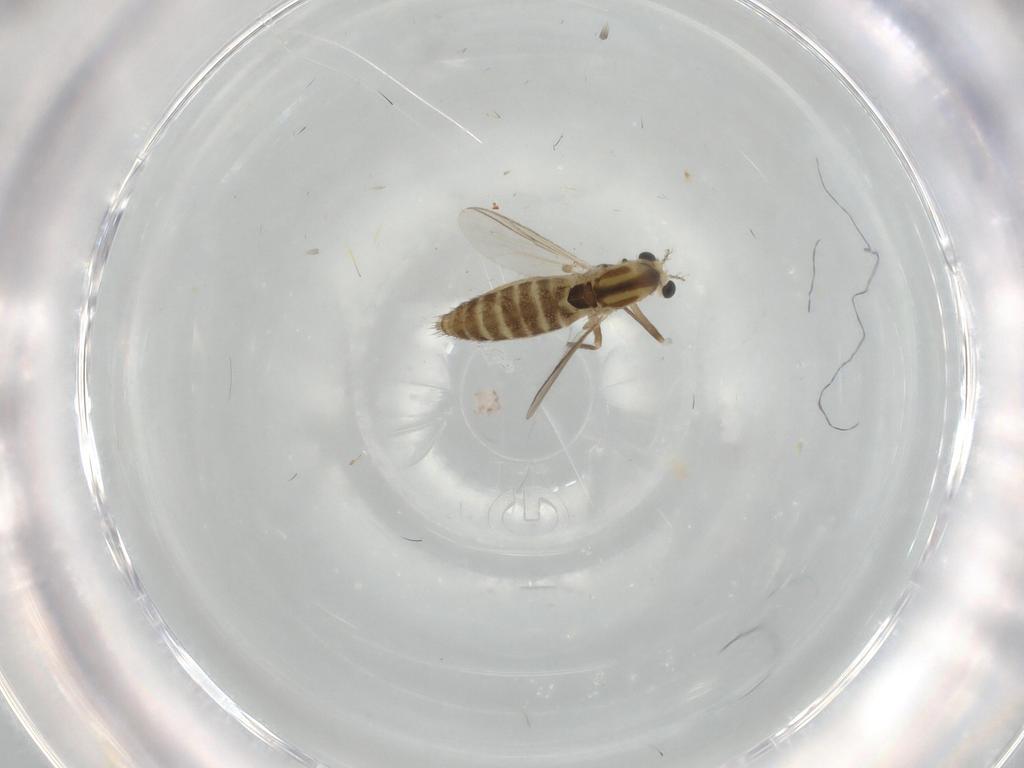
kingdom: Animalia
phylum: Arthropoda
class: Insecta
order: Diptera
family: Chironomidae
